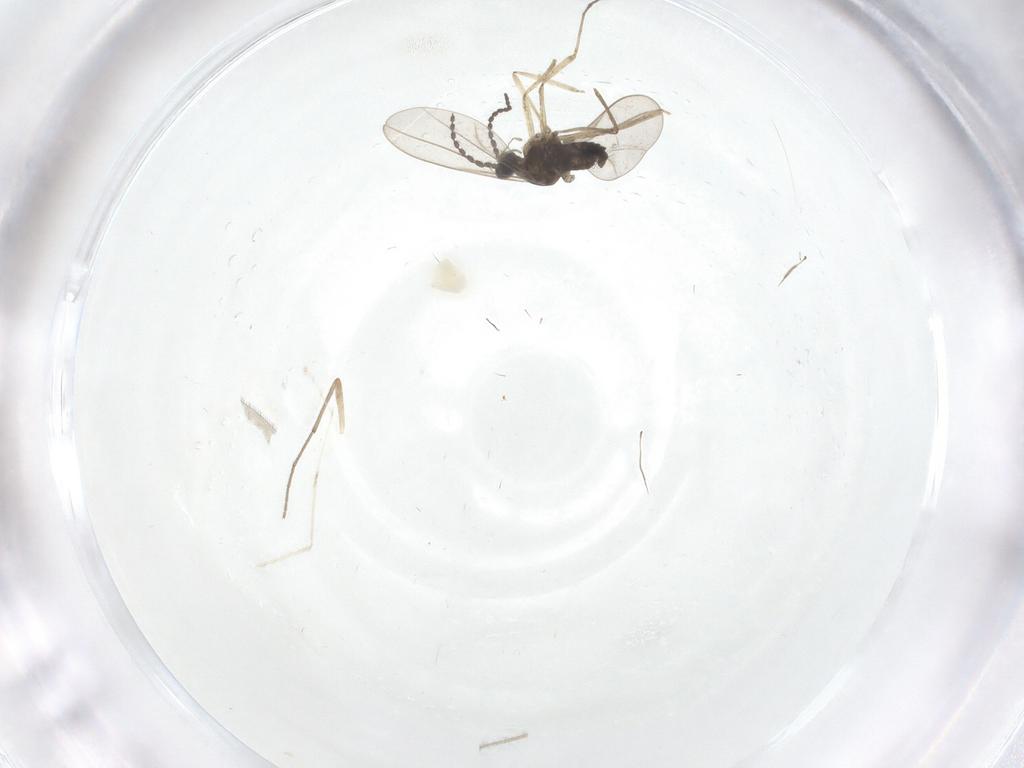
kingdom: Animalia
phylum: Arthropoda
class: Insecta
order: Diptera
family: Cecidomyiidae
